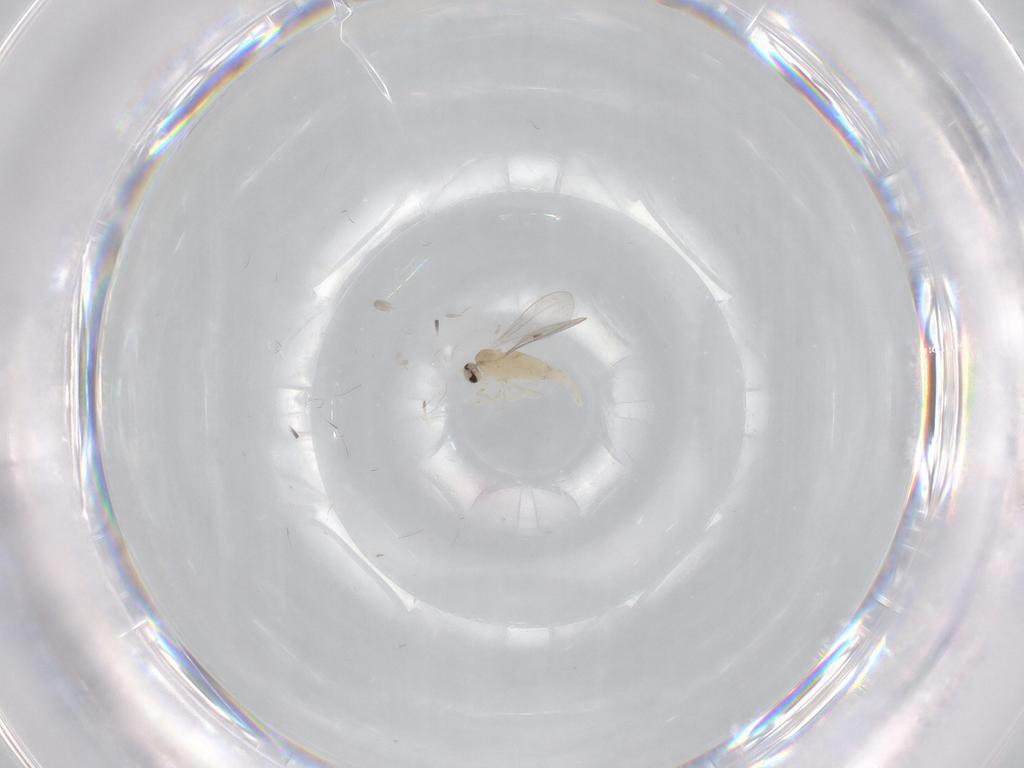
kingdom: Animalia
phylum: Arthropoda
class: Insecta
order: Diptera
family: Cecidomyiidae
